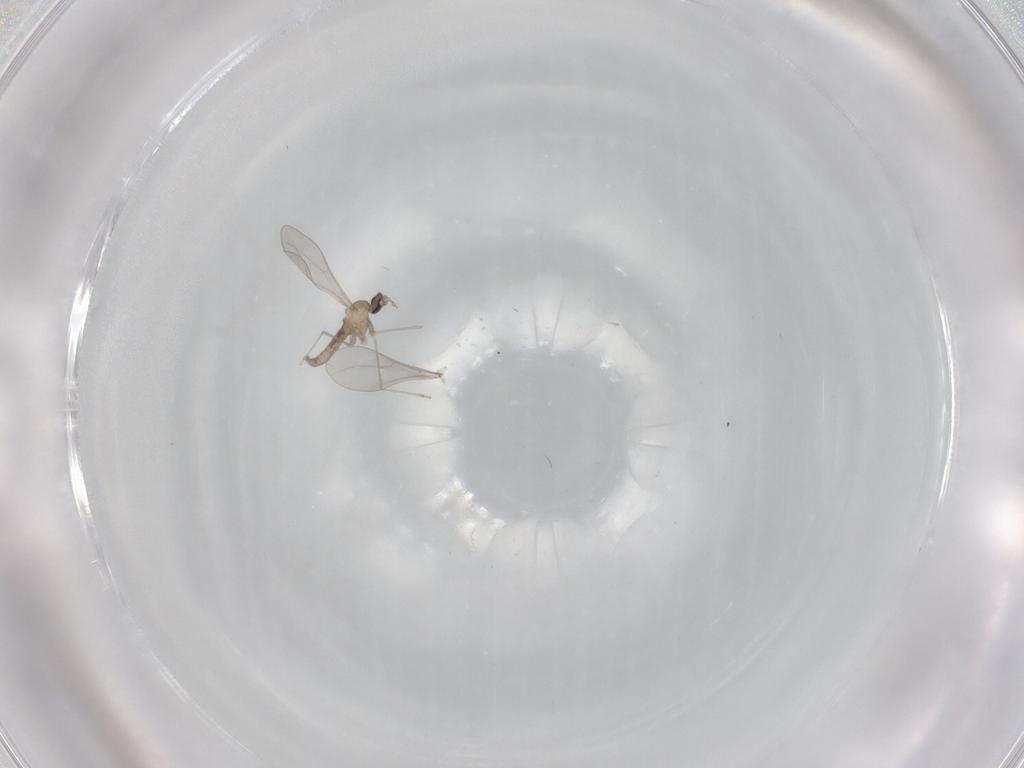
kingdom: Animalia
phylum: Arthropoda
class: Insecta
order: Diptera
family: Cecidomyiidae
